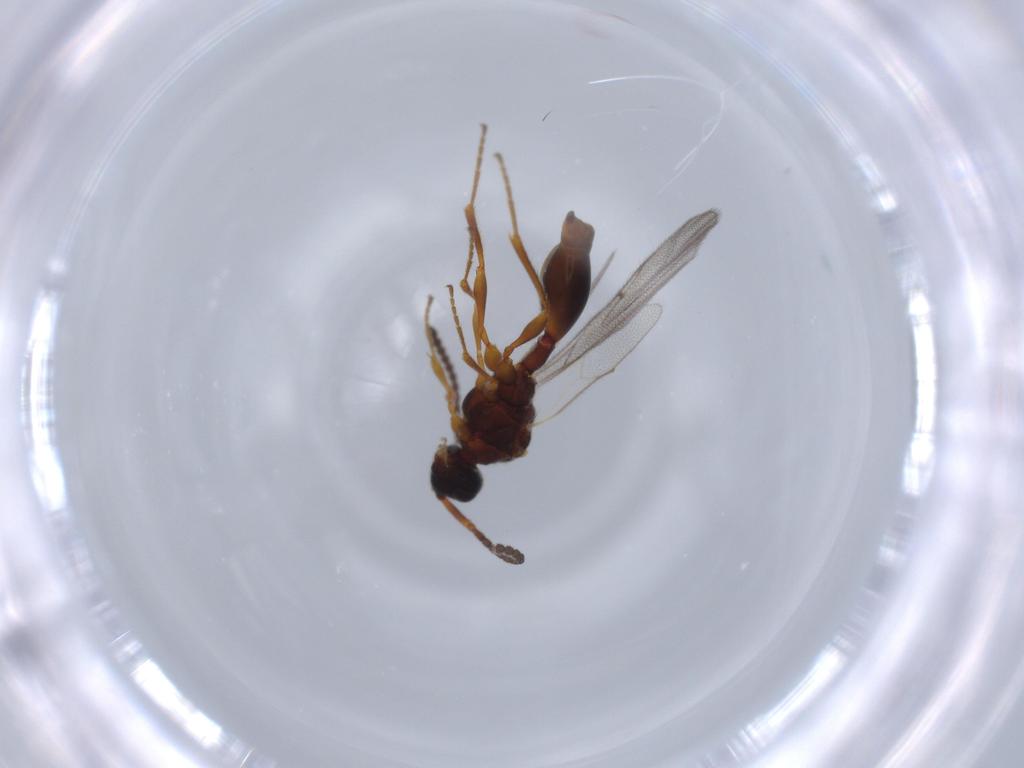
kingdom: Animalia
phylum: Arthropoda
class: Insecta
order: Hymenoptera
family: Diapriidae
